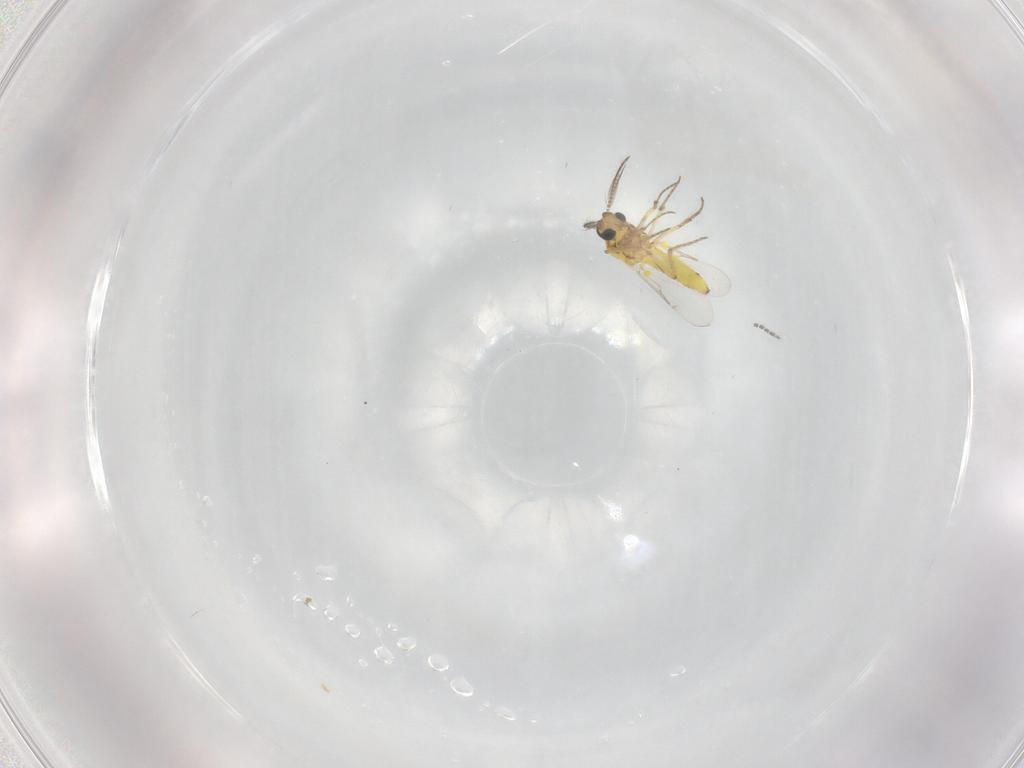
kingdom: Animalia
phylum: Arthropoda
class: Insecta
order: Diptera
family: Ceratopogonidae
